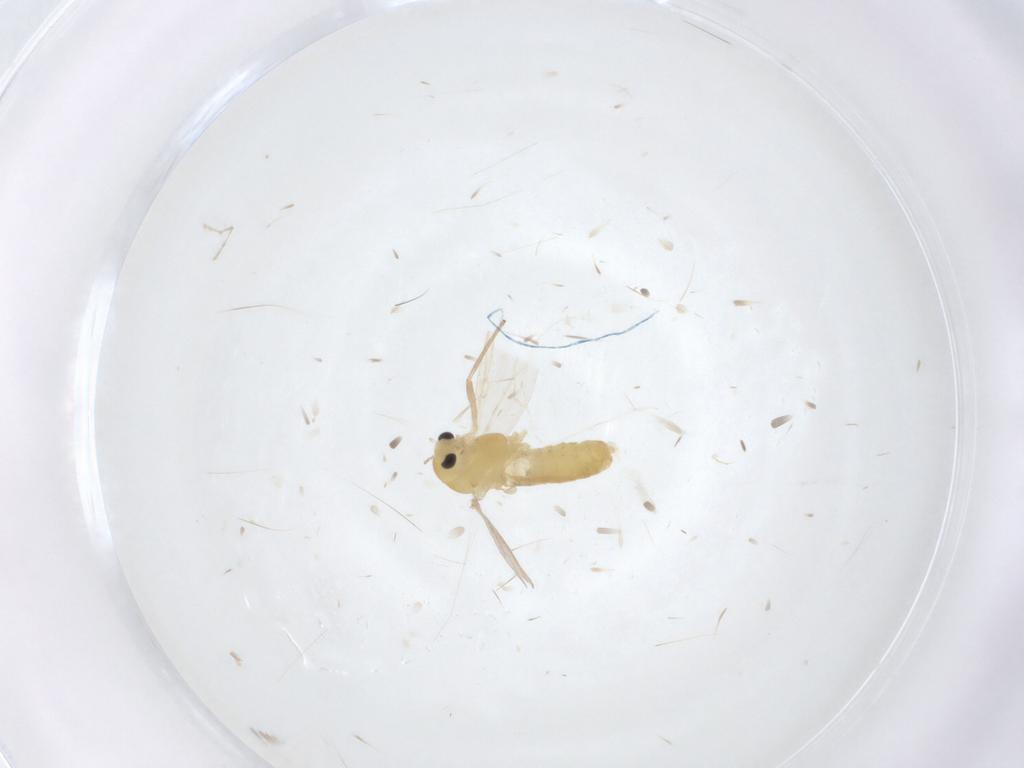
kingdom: Animalia
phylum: Arthropoda
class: Insecta
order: Diptera
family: Chironomidae
